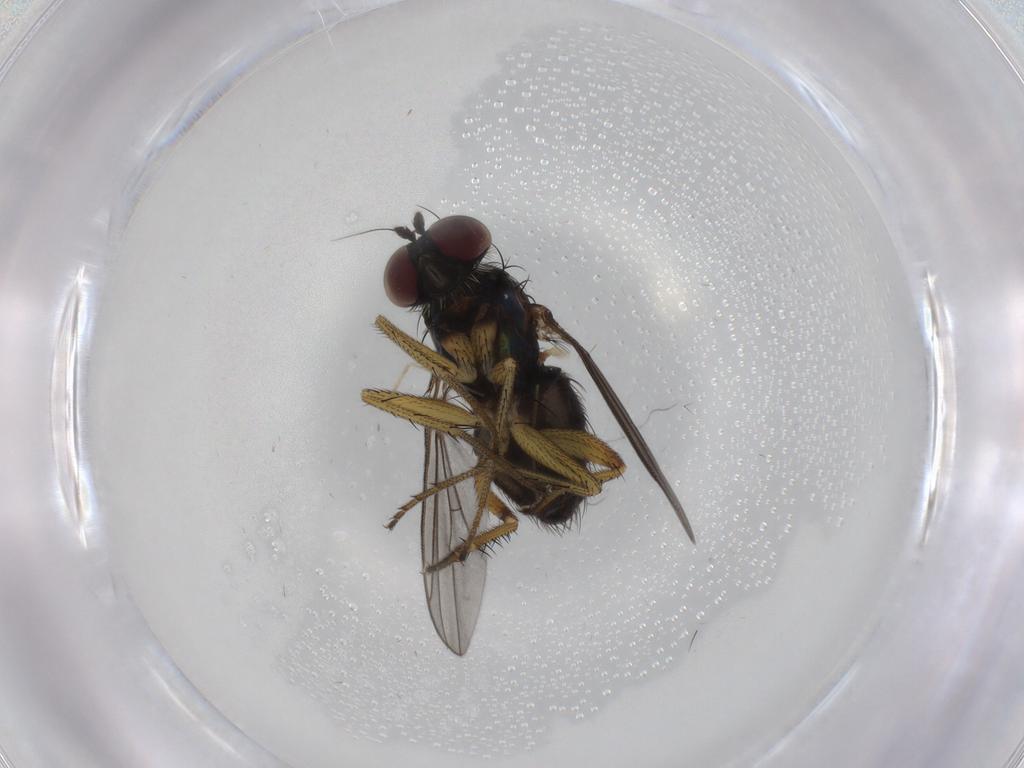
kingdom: Animalia
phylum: Arthropoda
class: Insecta
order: Diptera
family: Dolichopodidae
